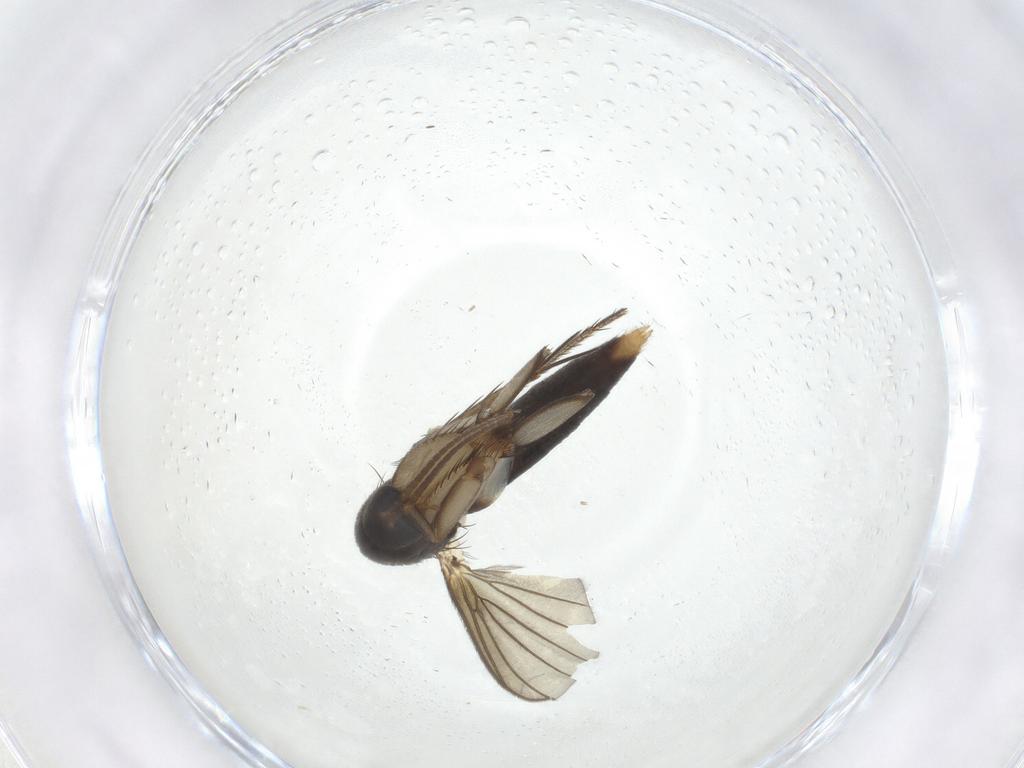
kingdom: Animalia
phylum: Arthropoda
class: Insecta
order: Diptera
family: Mycetophilidae
